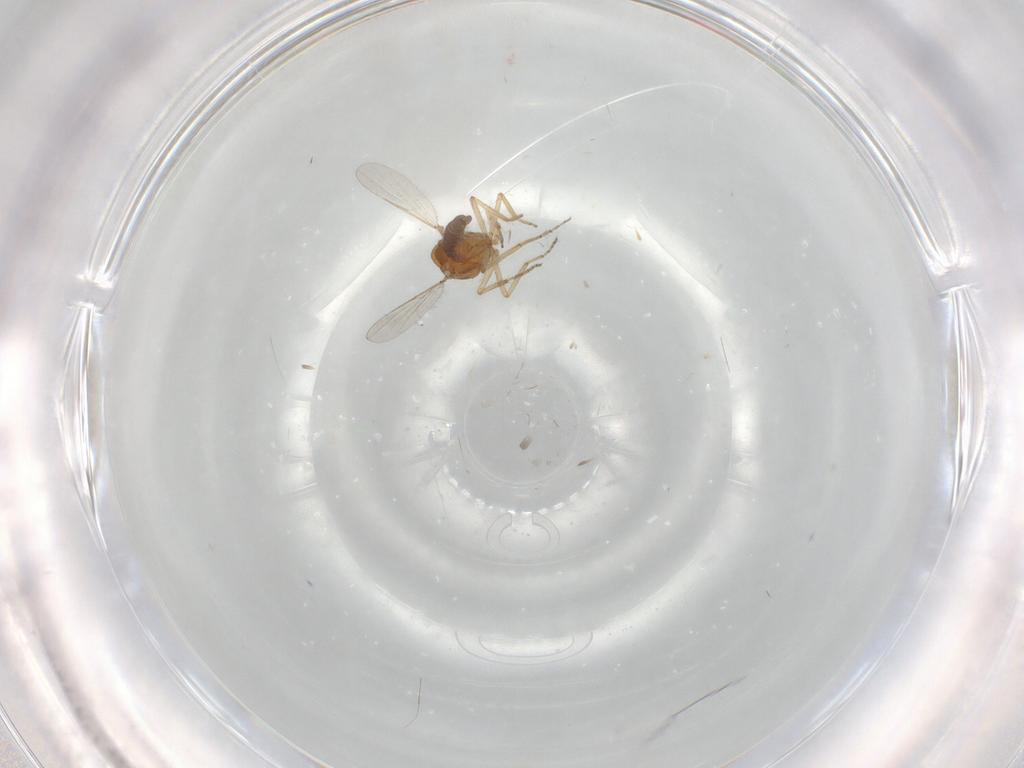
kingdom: Animalia
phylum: Arthropoda
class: Insecta
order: Diptera
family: Ceratopogonidae
